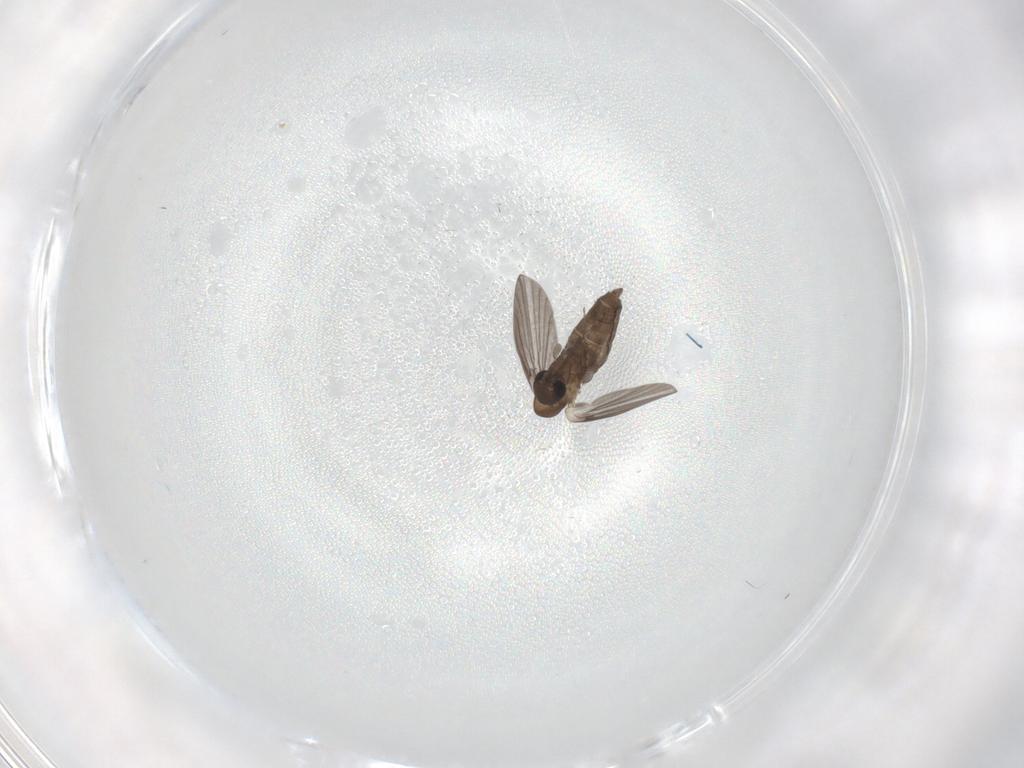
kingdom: Animalia
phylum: Arthropoda
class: Insecta
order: Diptera
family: Cecidomyiidae
